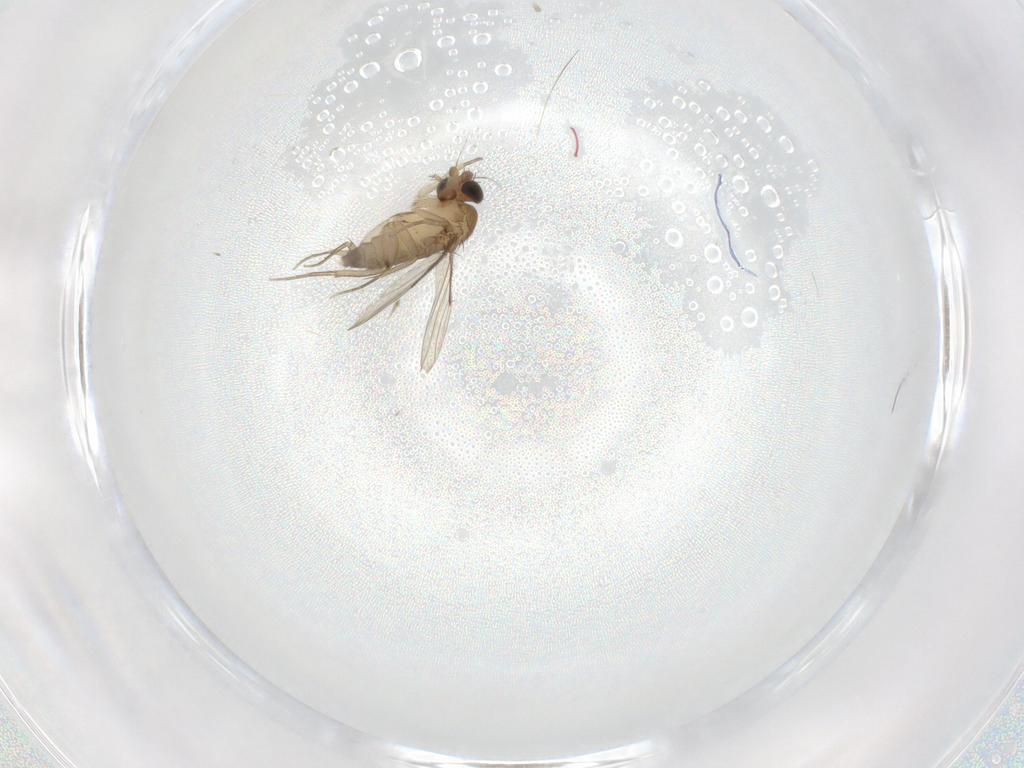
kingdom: Animalia
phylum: Arthropoda
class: Insecta
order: Diptera
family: Phoridae
